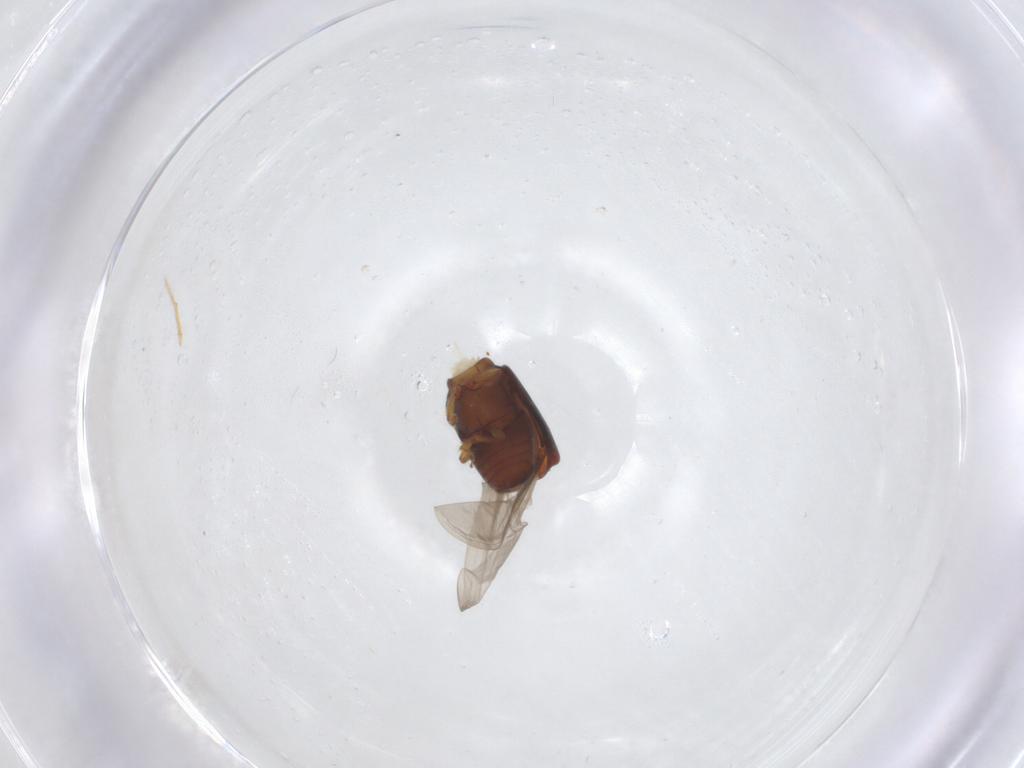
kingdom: Animalia
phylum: Arthropoda
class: Insecta
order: Coleoptera
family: Curculionidae
